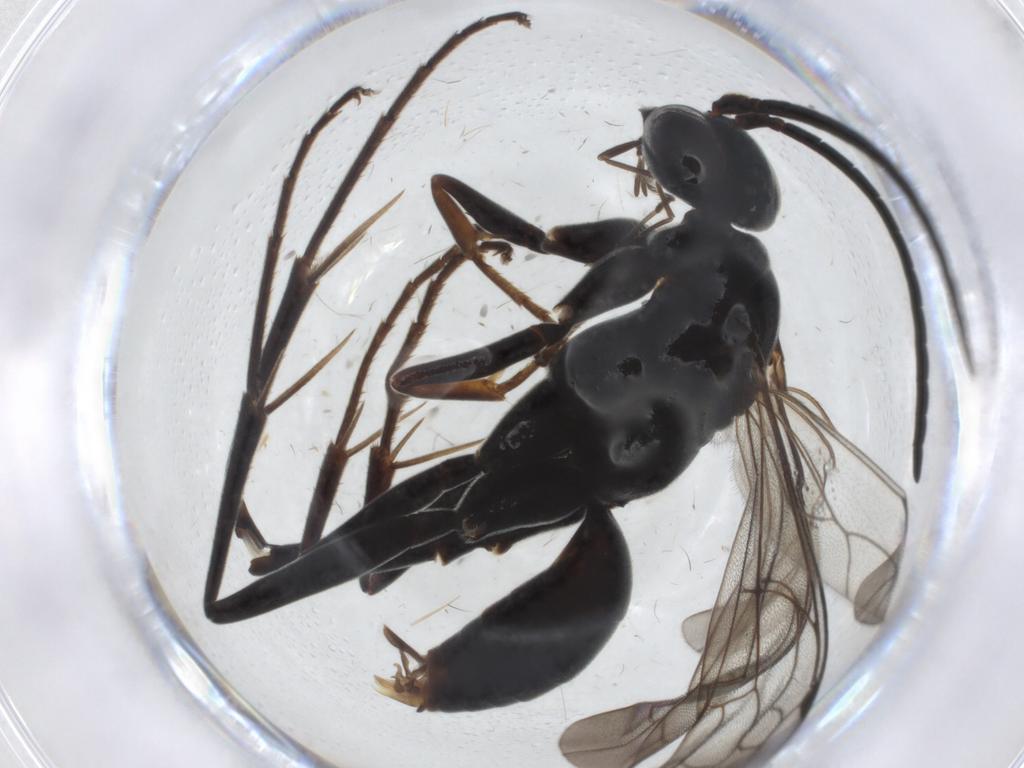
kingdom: Animalia
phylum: Arthropoda
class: Insecta
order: Hymenoptera
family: Pompilidae
